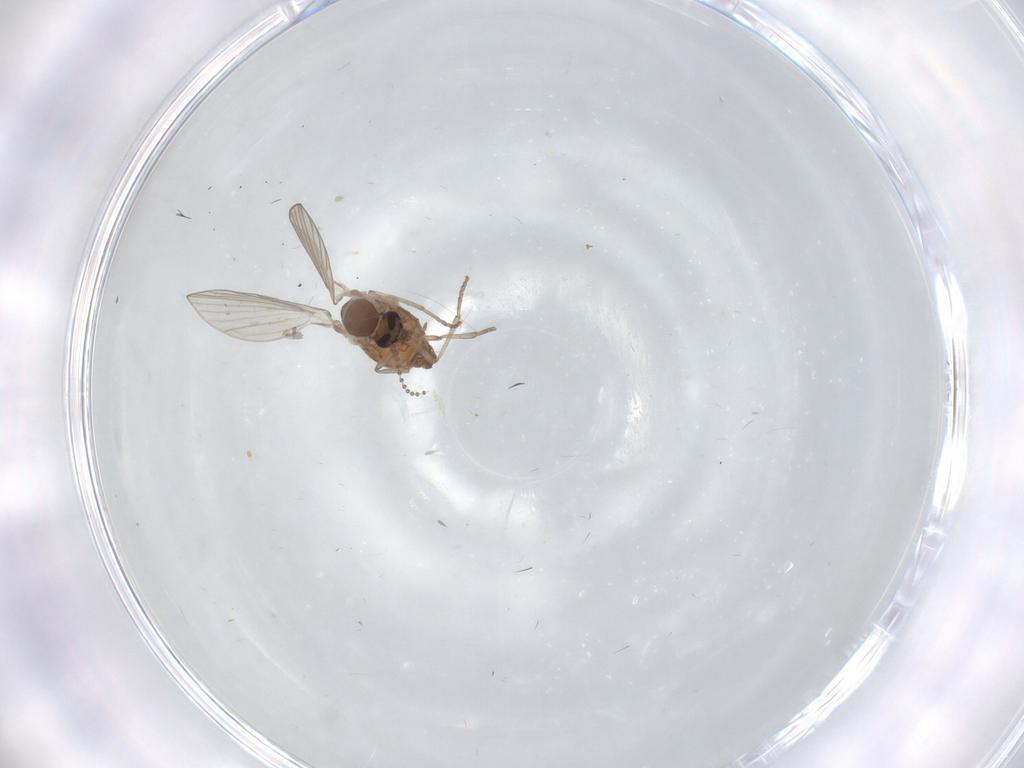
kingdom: Animalia
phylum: Arthropoda
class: Insecta
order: Diptera
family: Psychodidae
